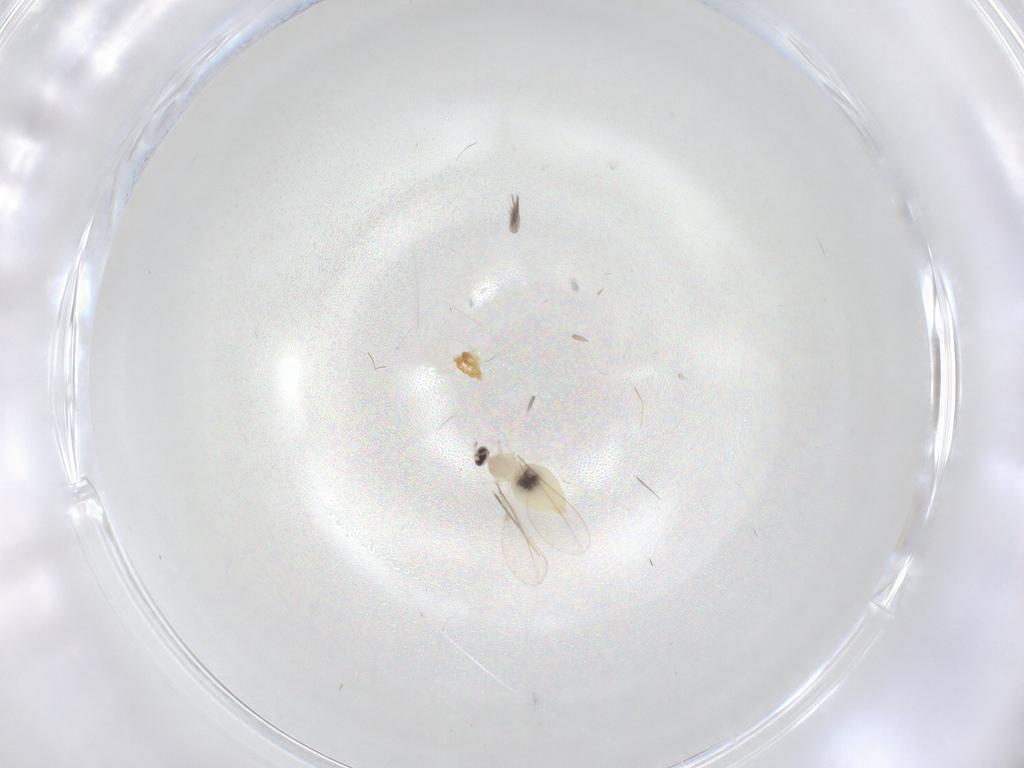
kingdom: Animalia
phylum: Arthropoda
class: Insecta
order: Diptera
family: Cecidomyiidae
